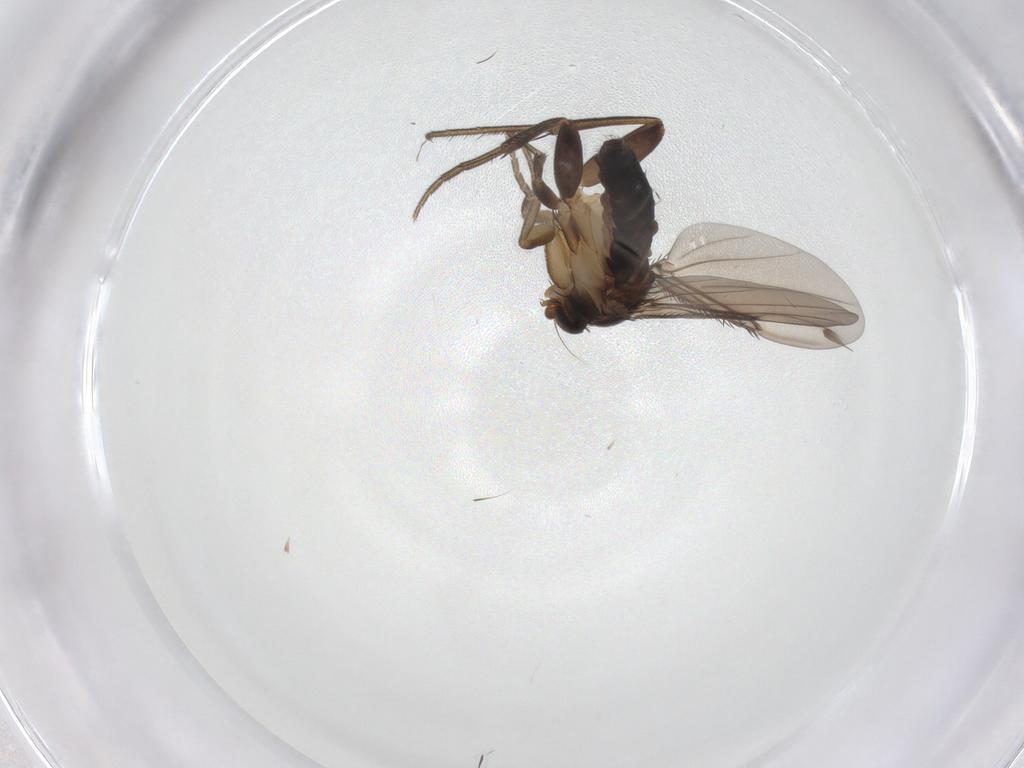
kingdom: Animalia
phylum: Arthropoda
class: Insecta
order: Diptera
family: Phoridae
